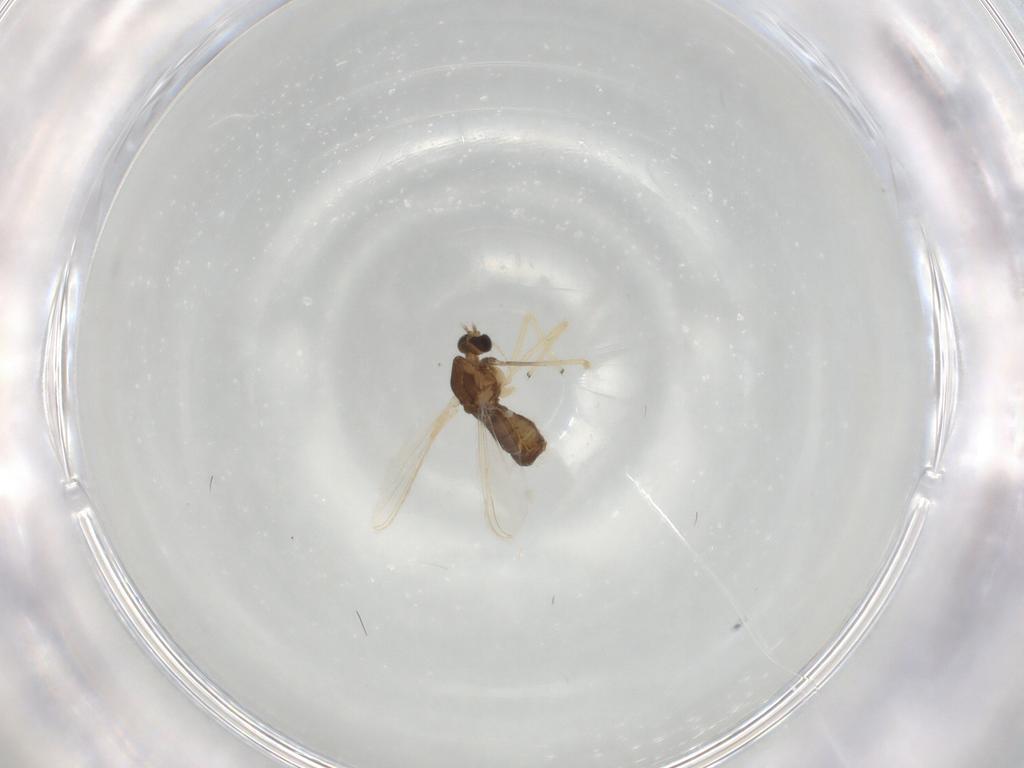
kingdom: Animalia
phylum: Arthropoda
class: Insecta
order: Diptera
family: Chironomidae
